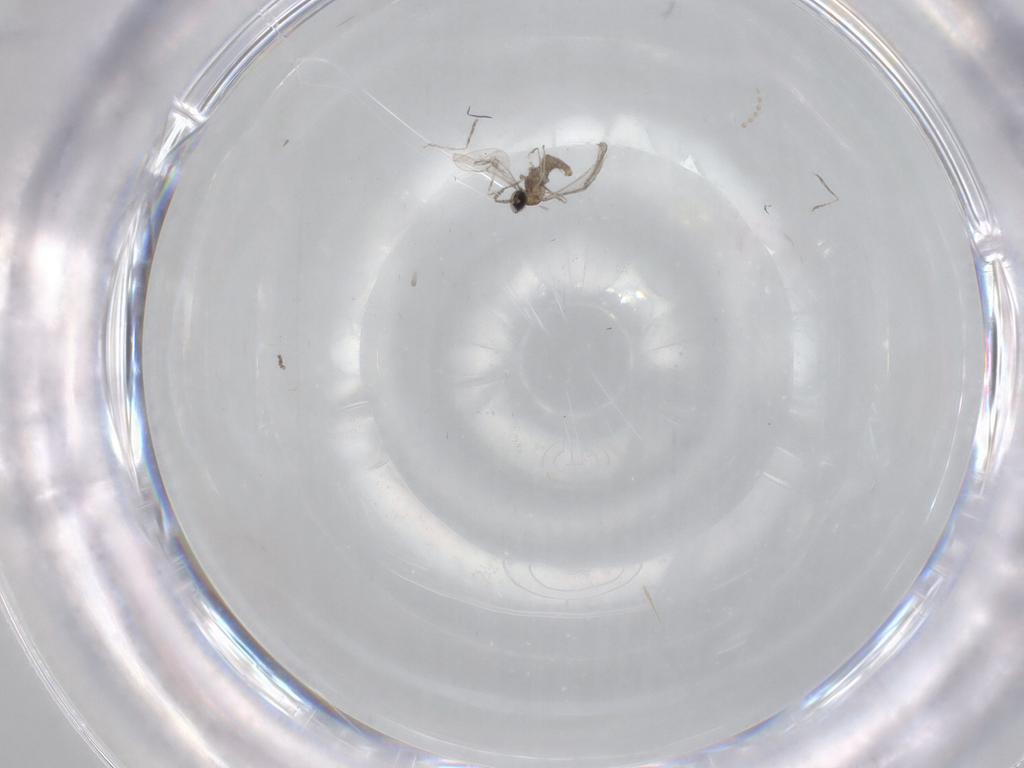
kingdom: Animalia
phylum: Arthropoda
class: Insecta
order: Diptera
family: Cecidomyiidae
